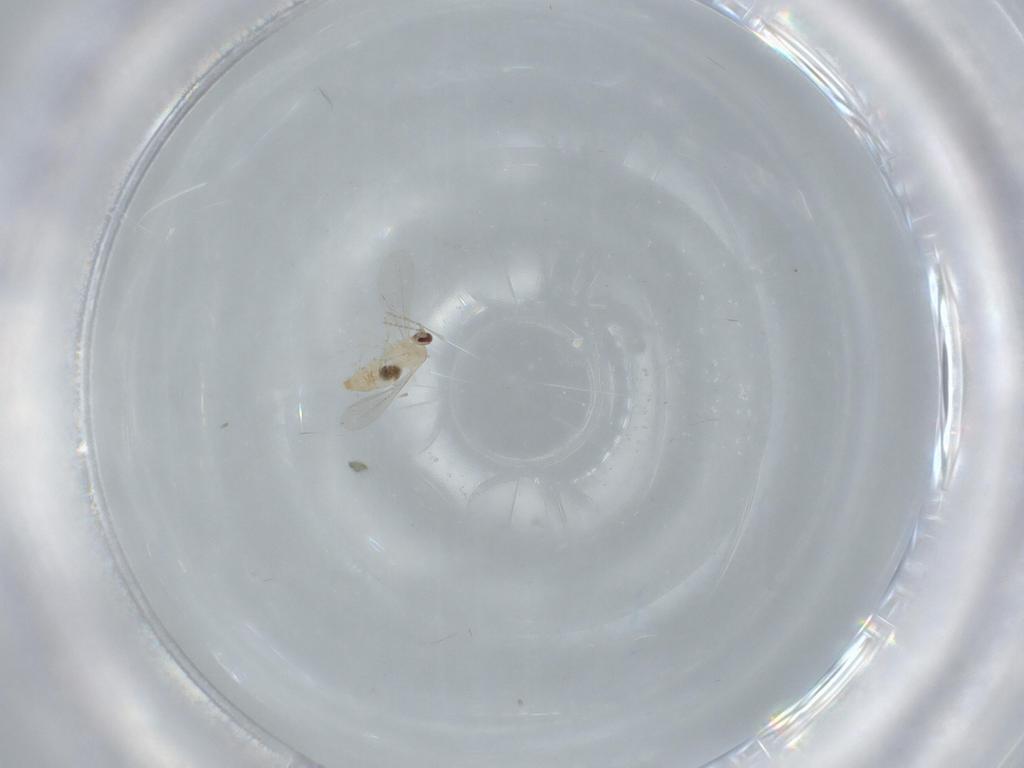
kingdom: Animalia
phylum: Arthropoda
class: Insecta
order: Diptera
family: Cecidomyiidae
